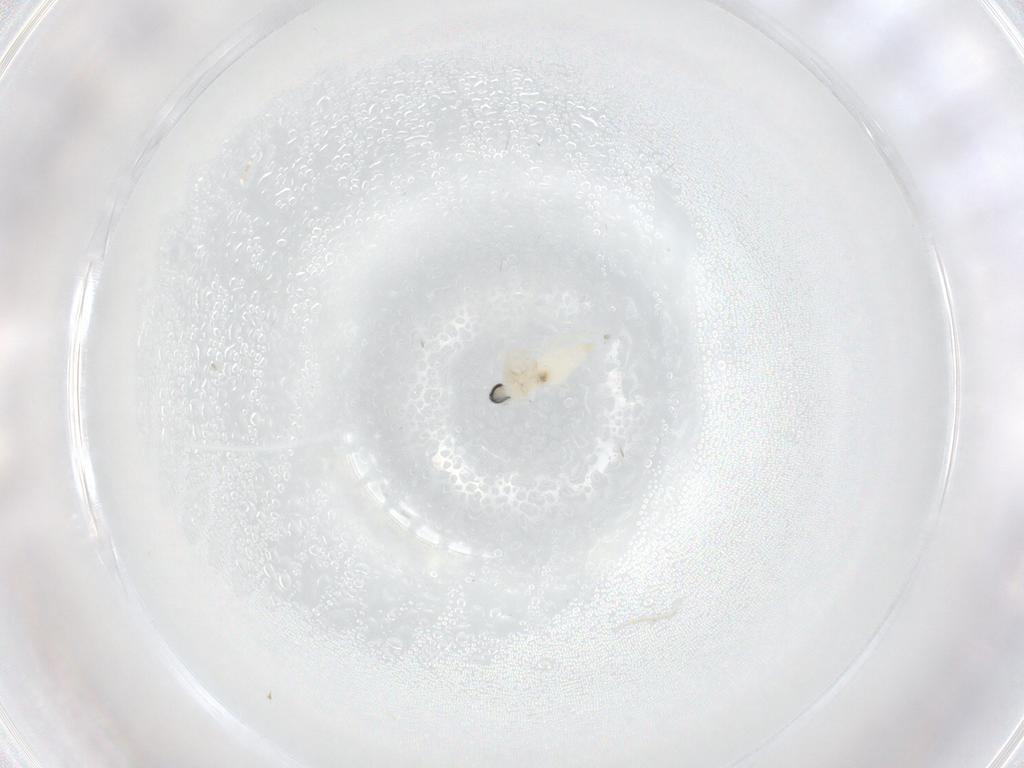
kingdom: Animalia
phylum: Arthropoda
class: Insecta
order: Diptera
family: Cecidomyiidae
